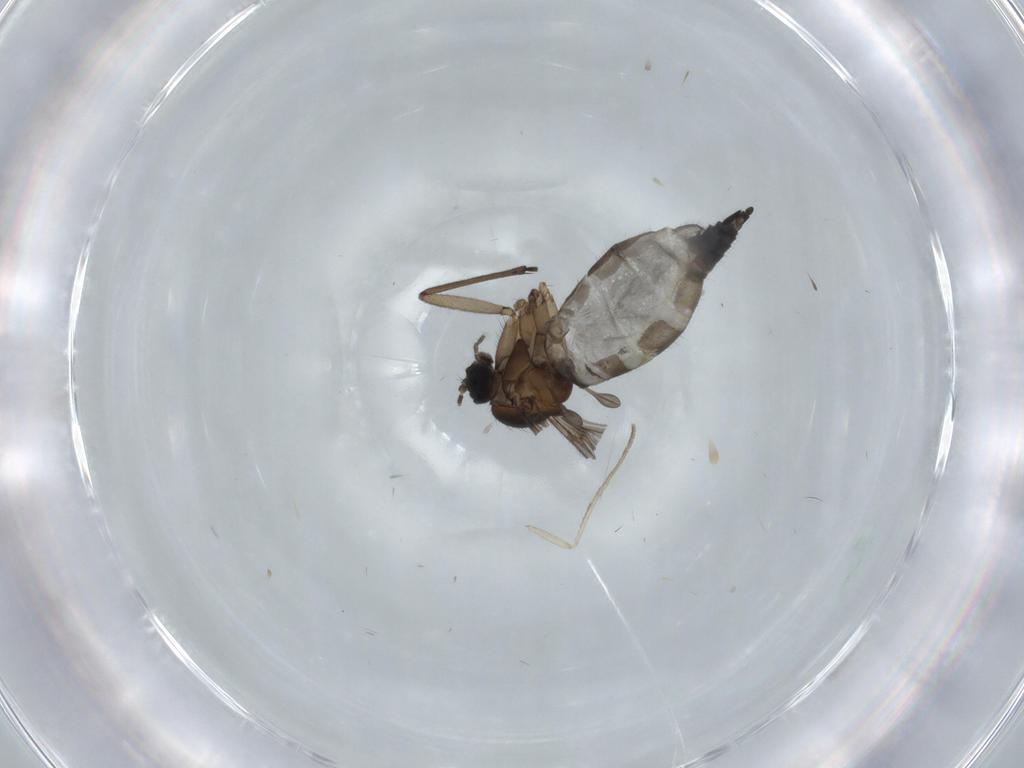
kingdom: Animalia
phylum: Arthropoda
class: Insecta
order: Diptera
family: Sciaridae
